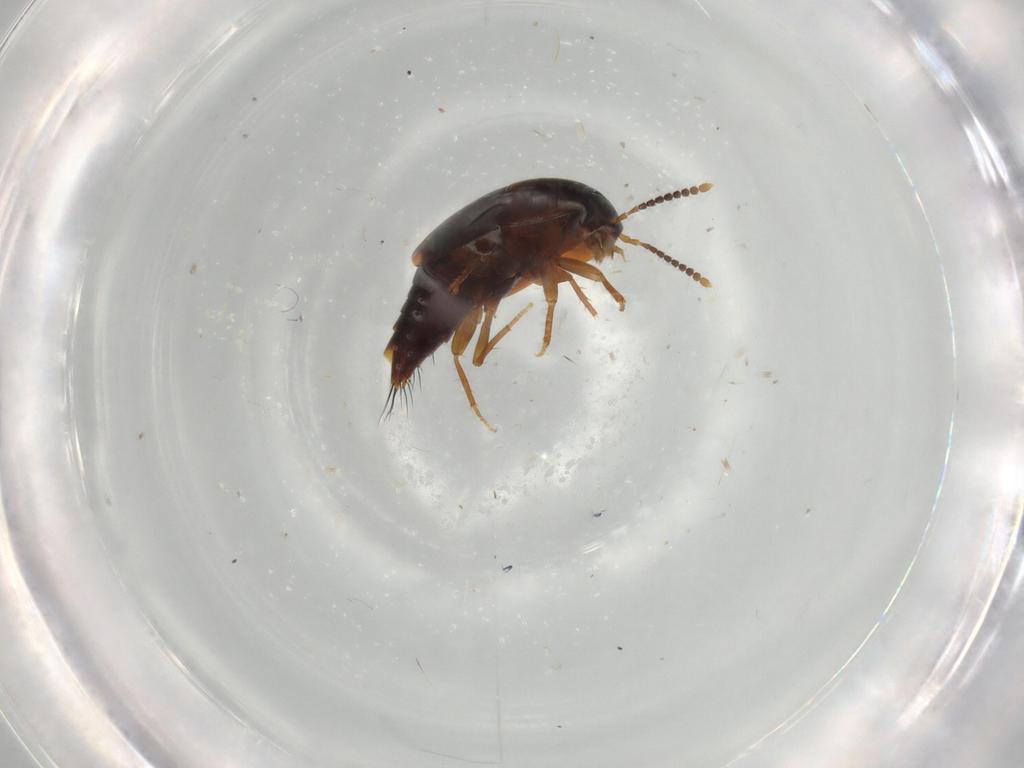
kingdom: Animalia
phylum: Arthropoda
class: Insecta
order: Coleoptera
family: Staphylinidae
